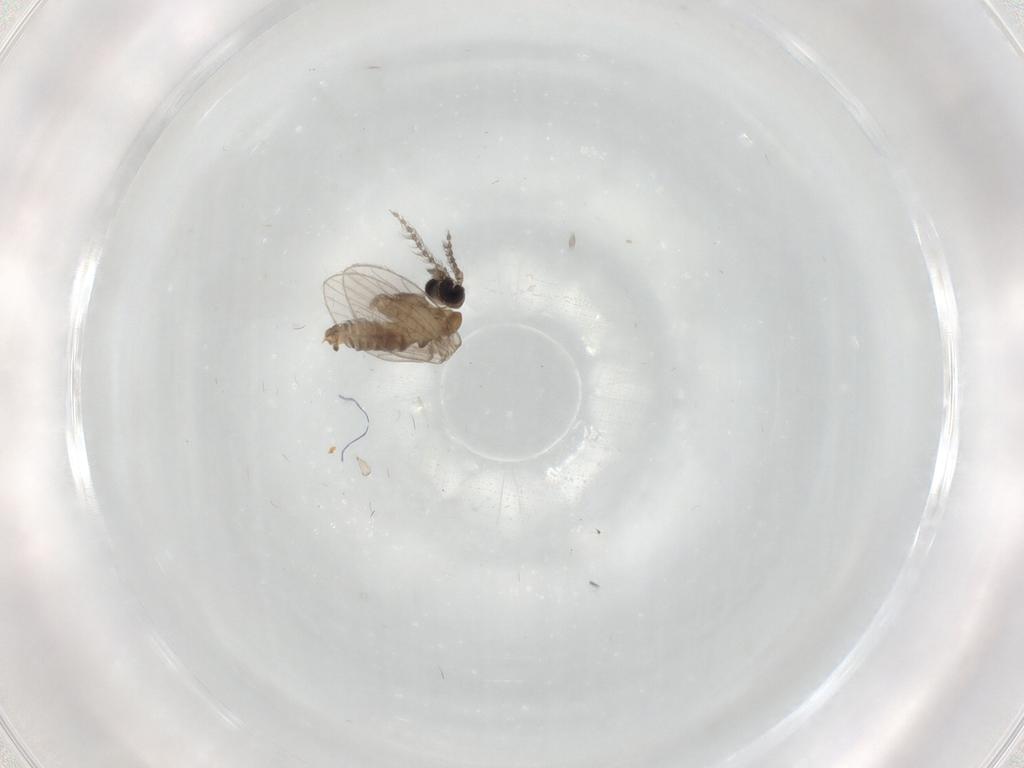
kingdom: Animalia
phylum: Arthropoda
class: Insecta
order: Diptera
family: Psychodidae
